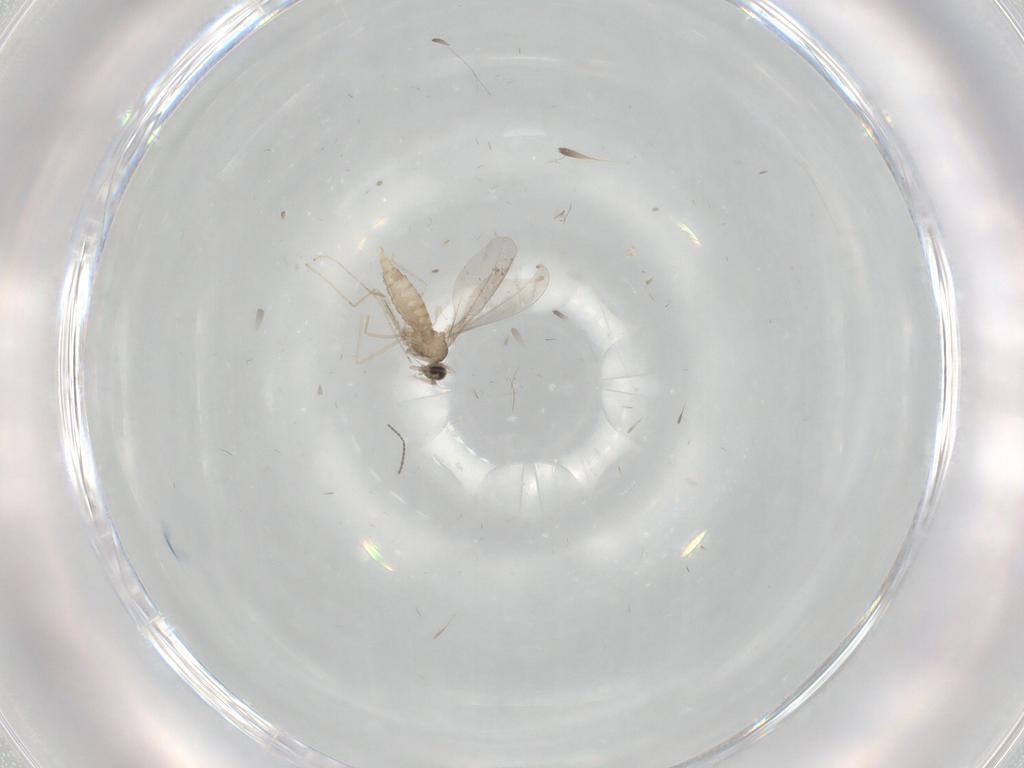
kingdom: Animalia
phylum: Arthropoda
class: Insecta
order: Diptera
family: Cecidomyiidae
